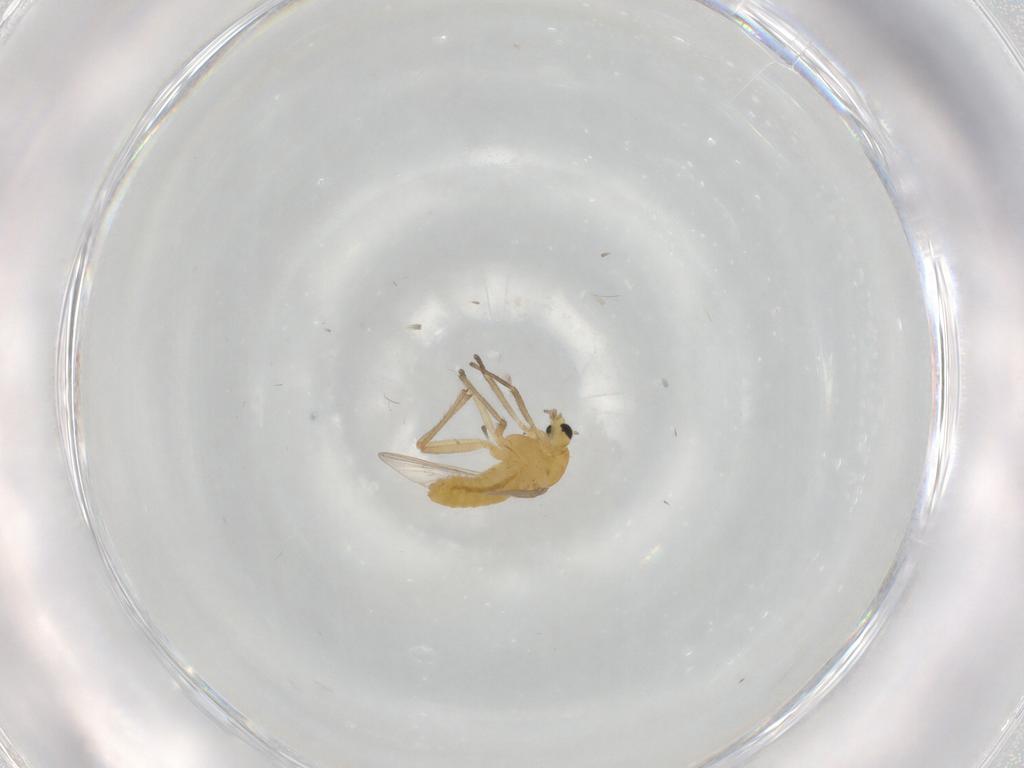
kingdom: Animalia
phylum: Arthropoda
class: Insecta
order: Diptera
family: Chironomidae
